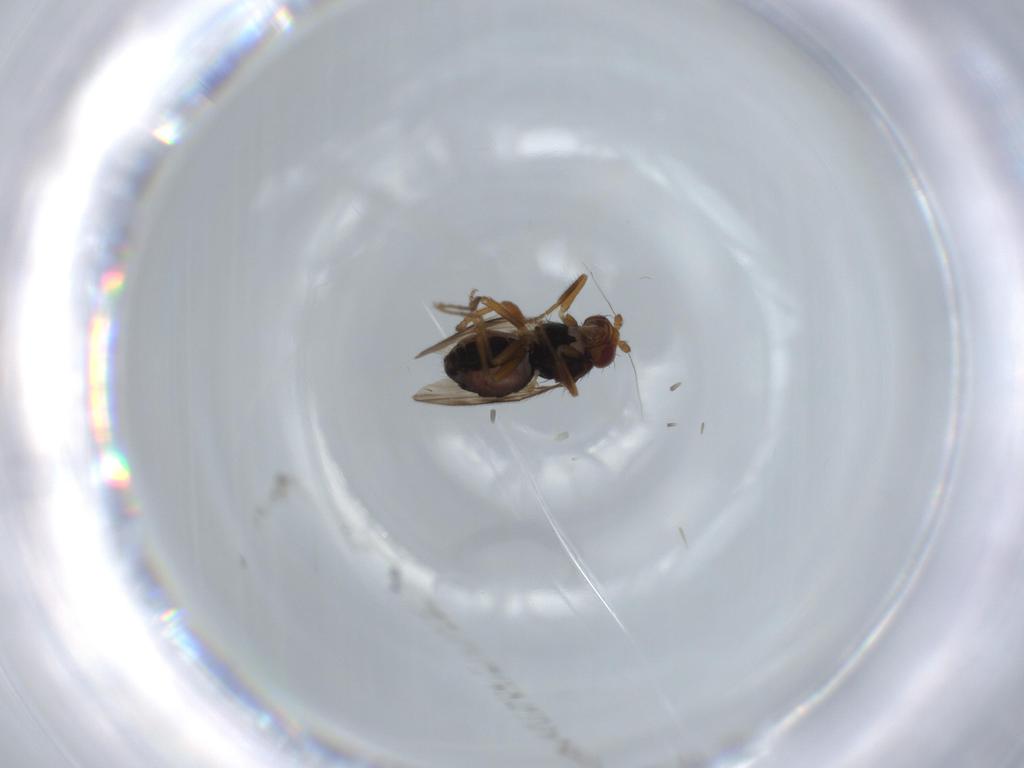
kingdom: Animalia
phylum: Arthropoda
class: Insecta
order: Diptera
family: Sphaeroceridae
